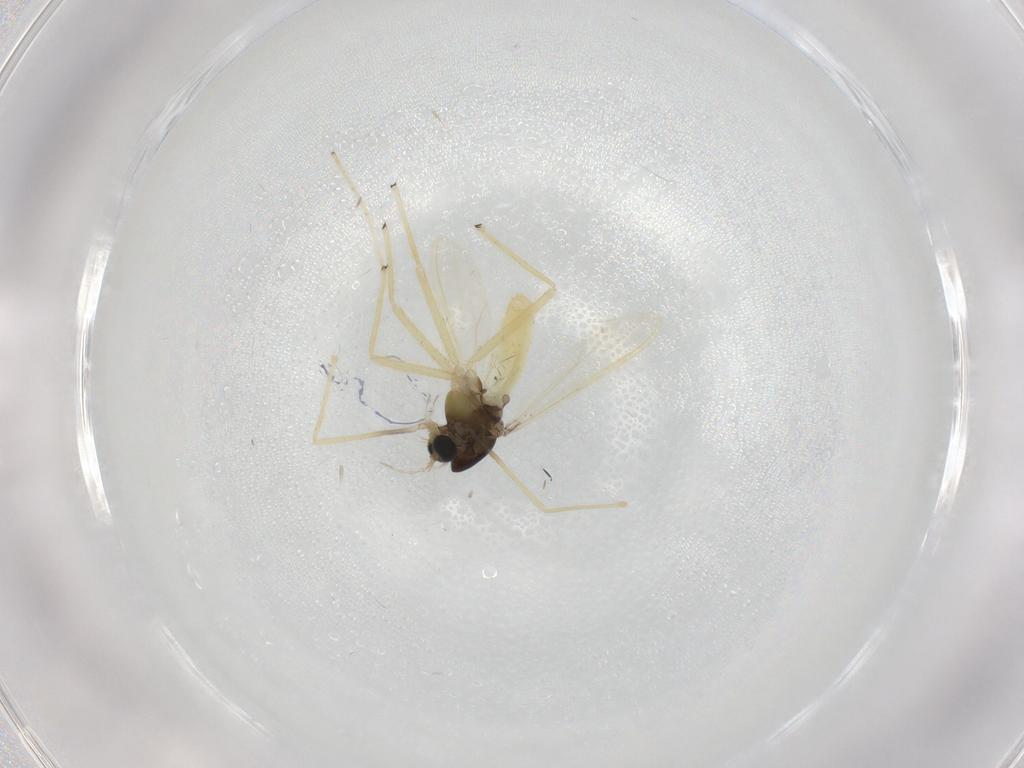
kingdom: Animalia
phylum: Arthropoda
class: Insecta
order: Diptera
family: Chironomidae
